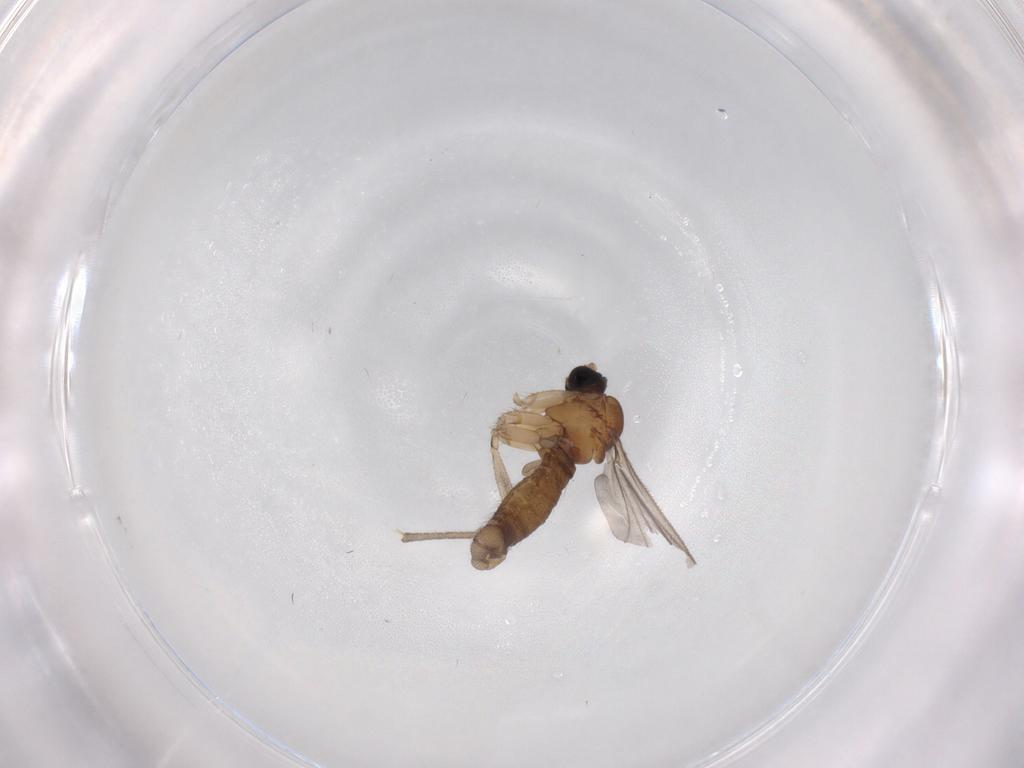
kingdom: Animalia
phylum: Arthropoda
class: Insecta
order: Diptera
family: Sciaridae
